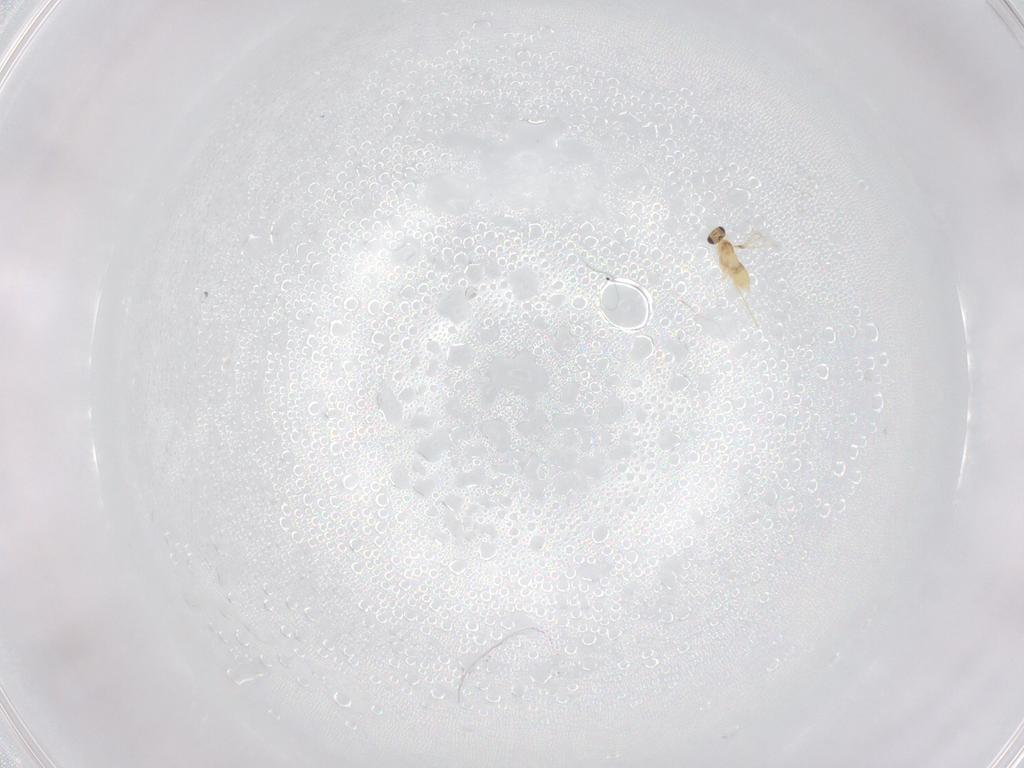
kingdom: Animalia
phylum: Arthropoda
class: Insecta
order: Hymenoptera
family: Mymaridae
